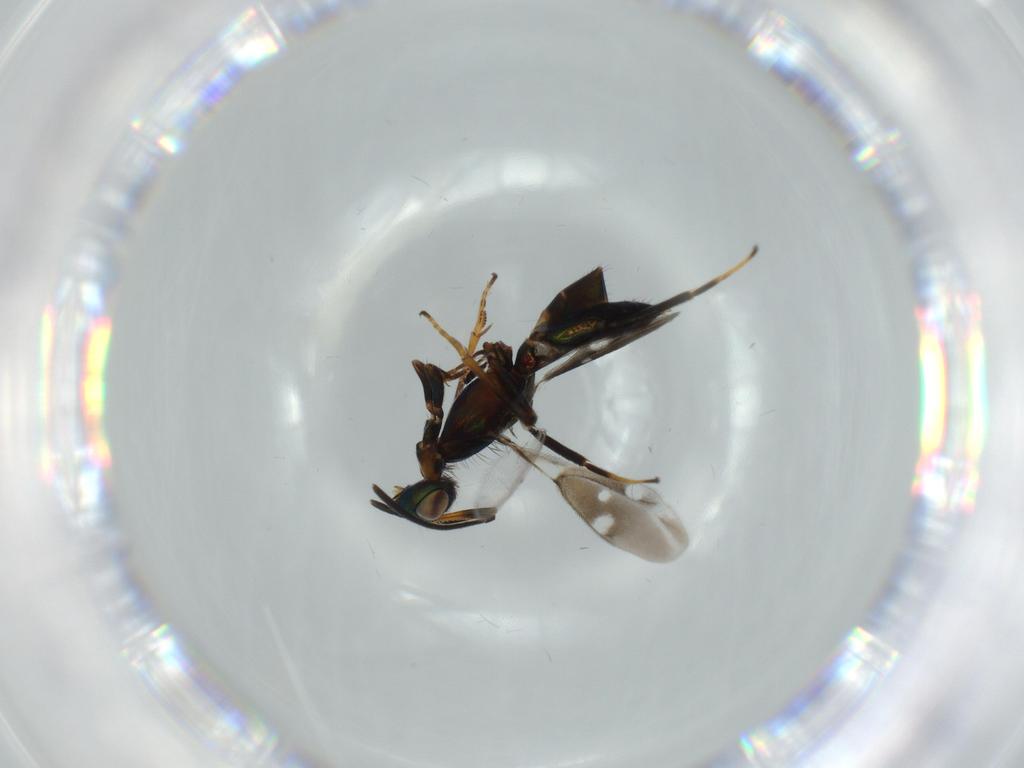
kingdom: Animalia
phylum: Arthropoda
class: Insecta
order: Hymenoptera
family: Eupelmidae
